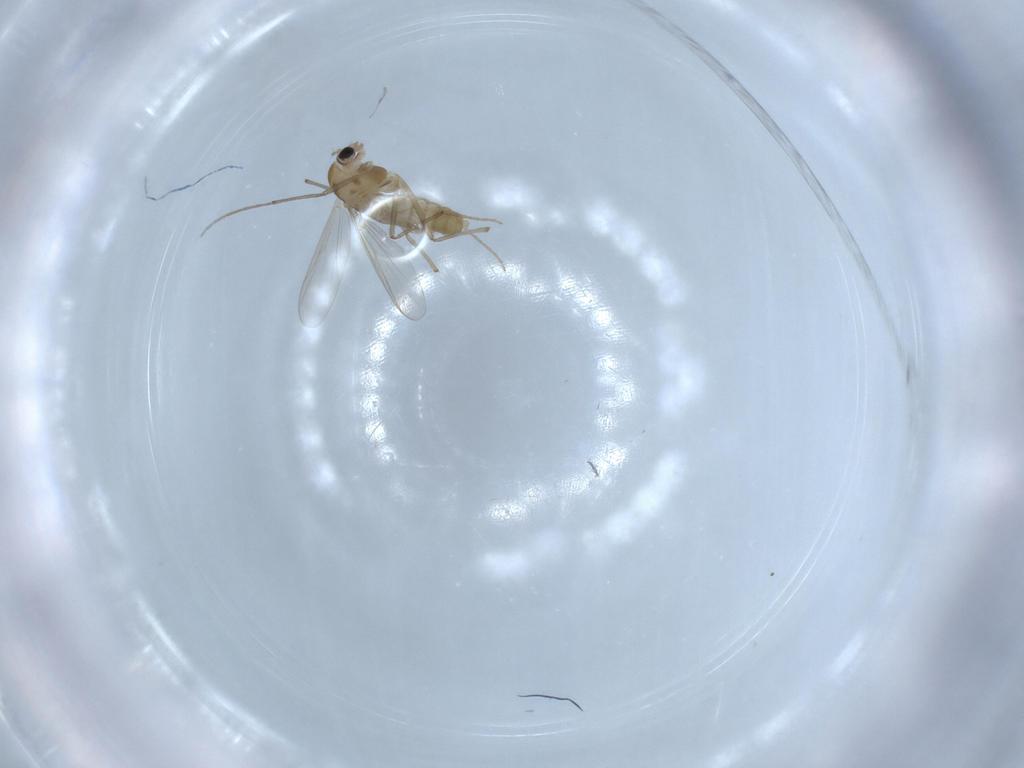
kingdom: Animalia
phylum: Arthropoda
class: Insecta
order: Diptera
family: Chironomidae
